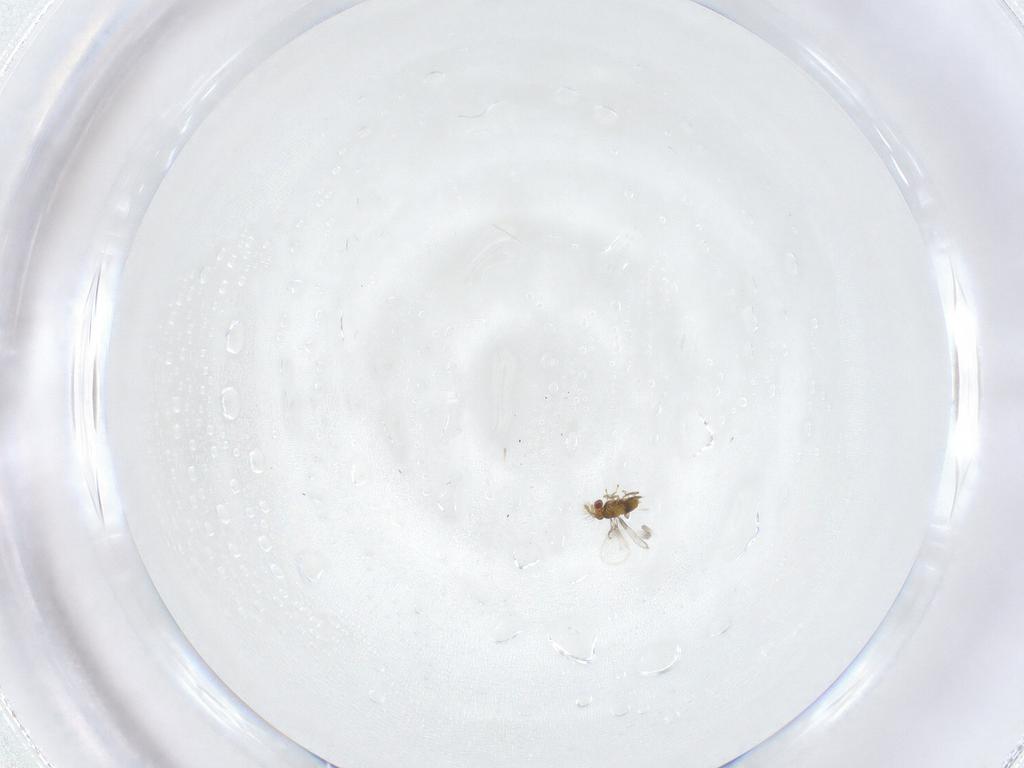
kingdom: Animalia
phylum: Arthropoda
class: Insecta
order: Hymenoptera
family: Trichogrammatidae
